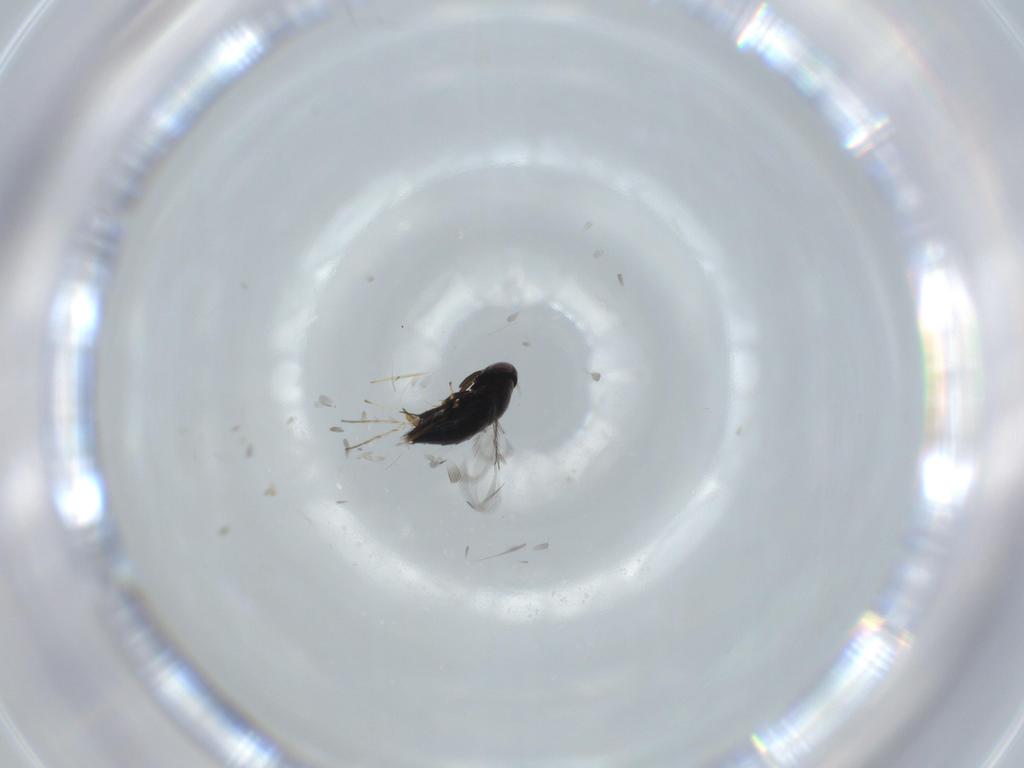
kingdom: Animalia
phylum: Arthropoda
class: Insecta
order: Hymenoptera
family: Signiphoridae
